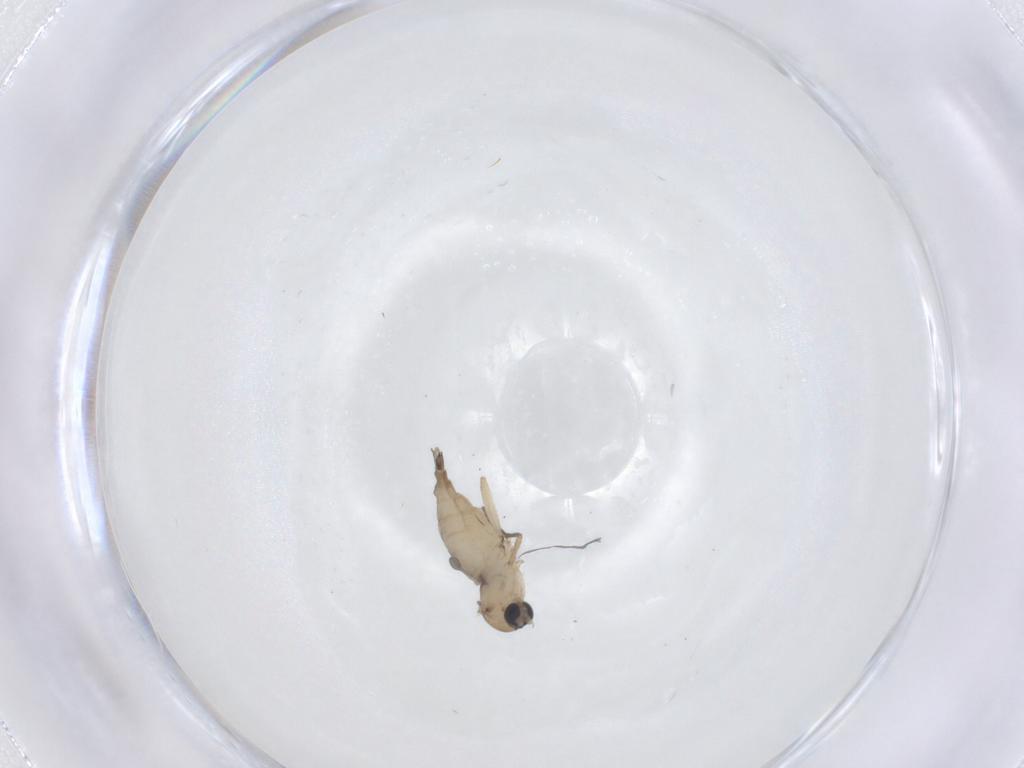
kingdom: Animalia
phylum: Arthropoda
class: Insecta
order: Diptera
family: Sciaridae
